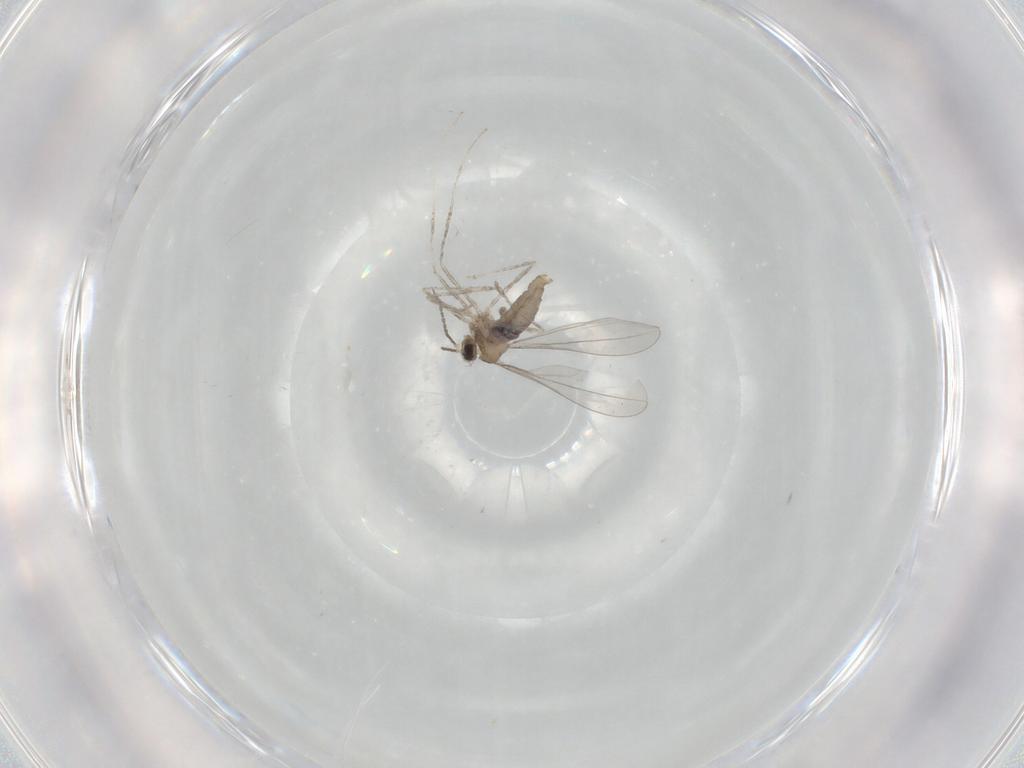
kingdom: Animalia
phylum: Arthropoda
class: Insecta
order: Diptera
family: Cecidomyiidae
